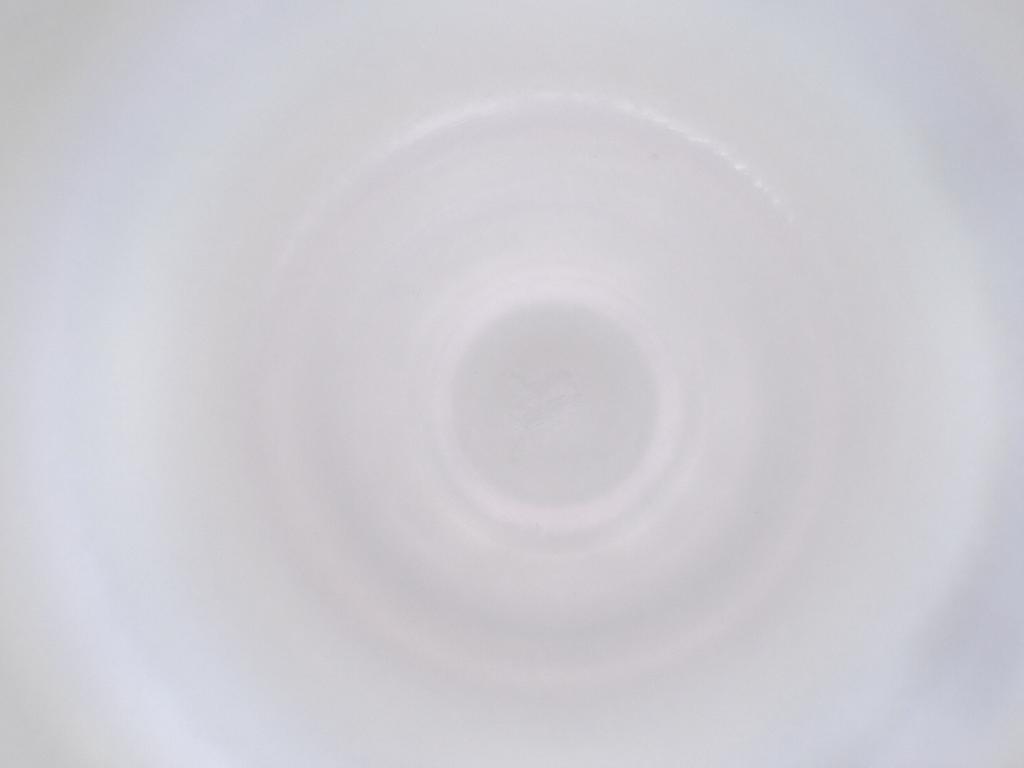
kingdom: Animalia
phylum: Arthropoda
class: Insecta
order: Diptera
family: Cecidomyiidae
